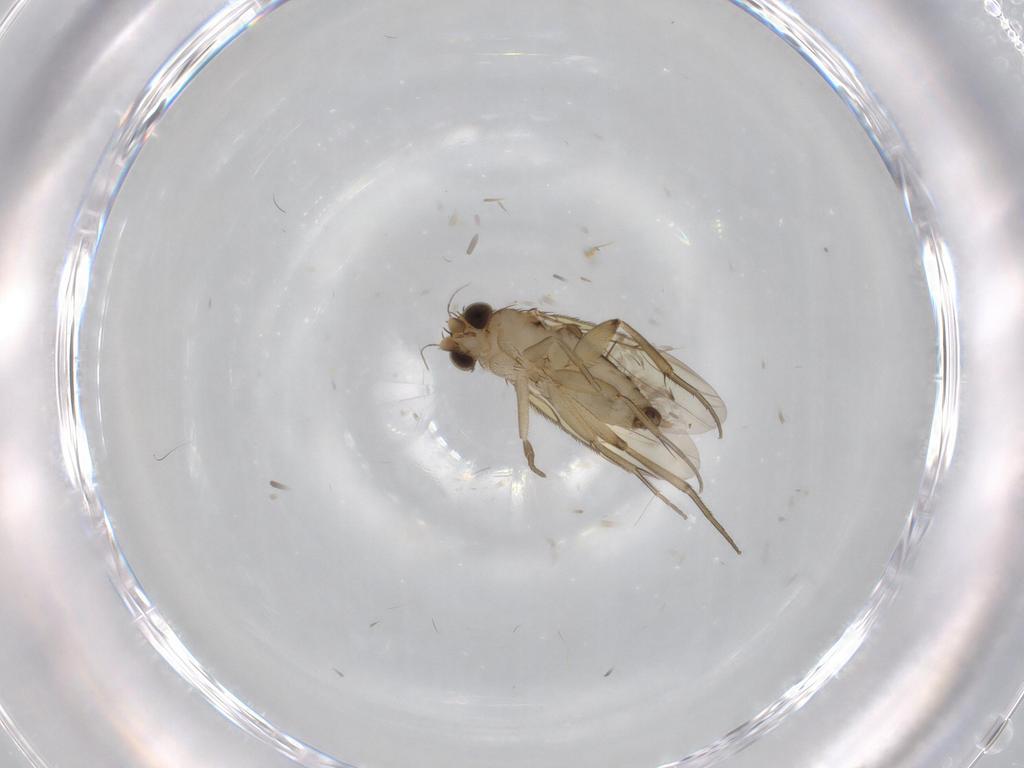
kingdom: Animalia
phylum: Arthropoda
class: Insecta
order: Diptera
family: Phoridae
